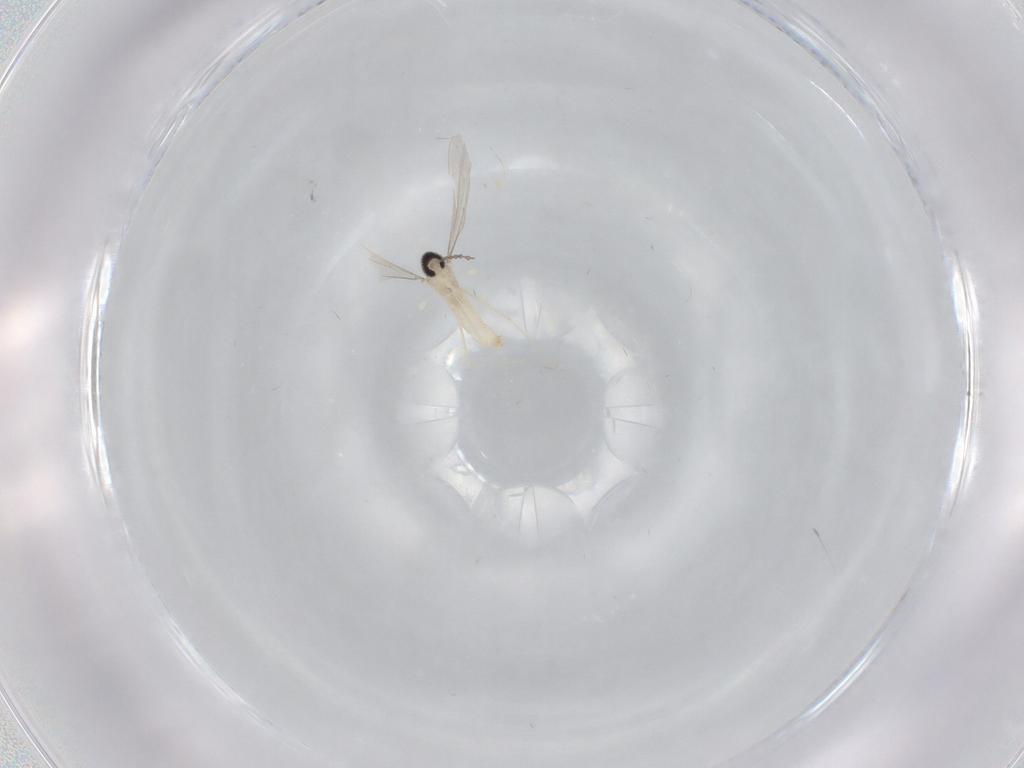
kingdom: Animalia
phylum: Arthropoda
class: Insecta
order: Diptera
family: Cecidomyiidae
